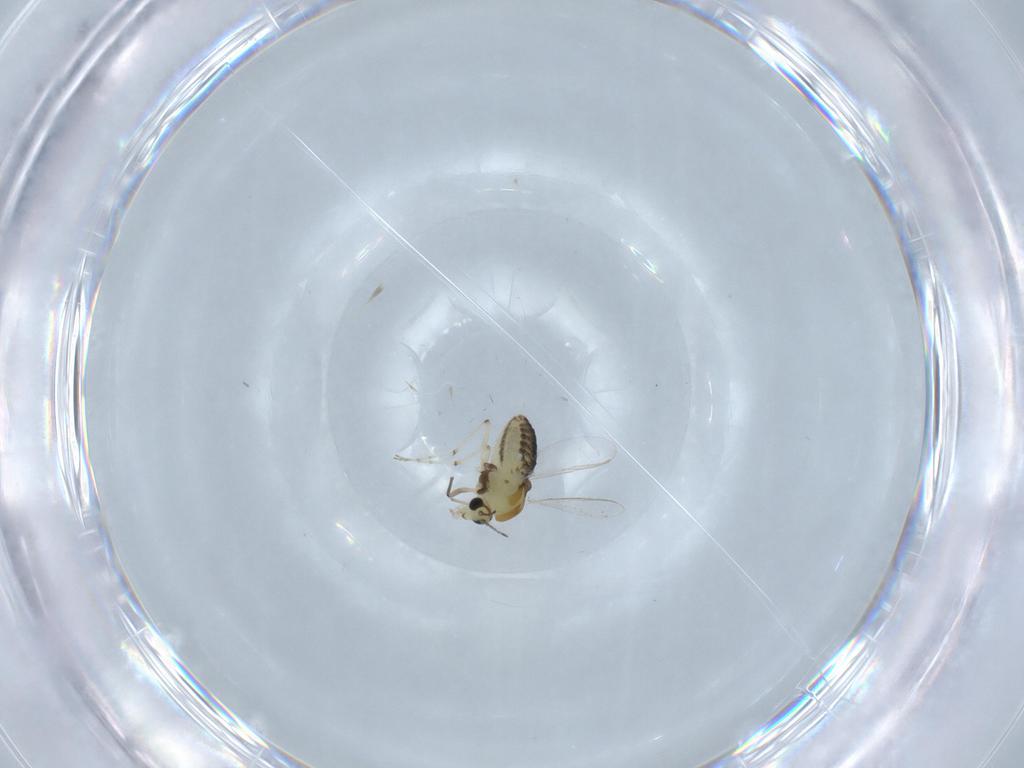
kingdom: Animalia
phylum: Arthropoda
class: Insecta
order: Diptera
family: Chironomidae
